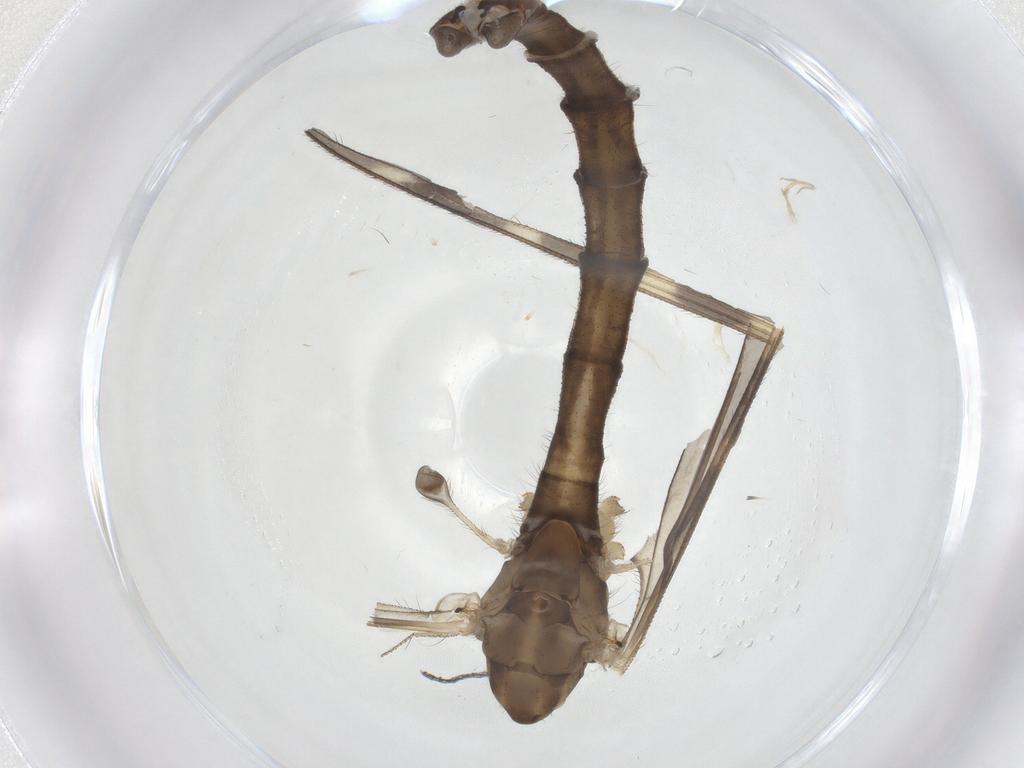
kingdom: Animalia
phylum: Arthropoda
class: Insecta
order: Diptera
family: Limoniidae
